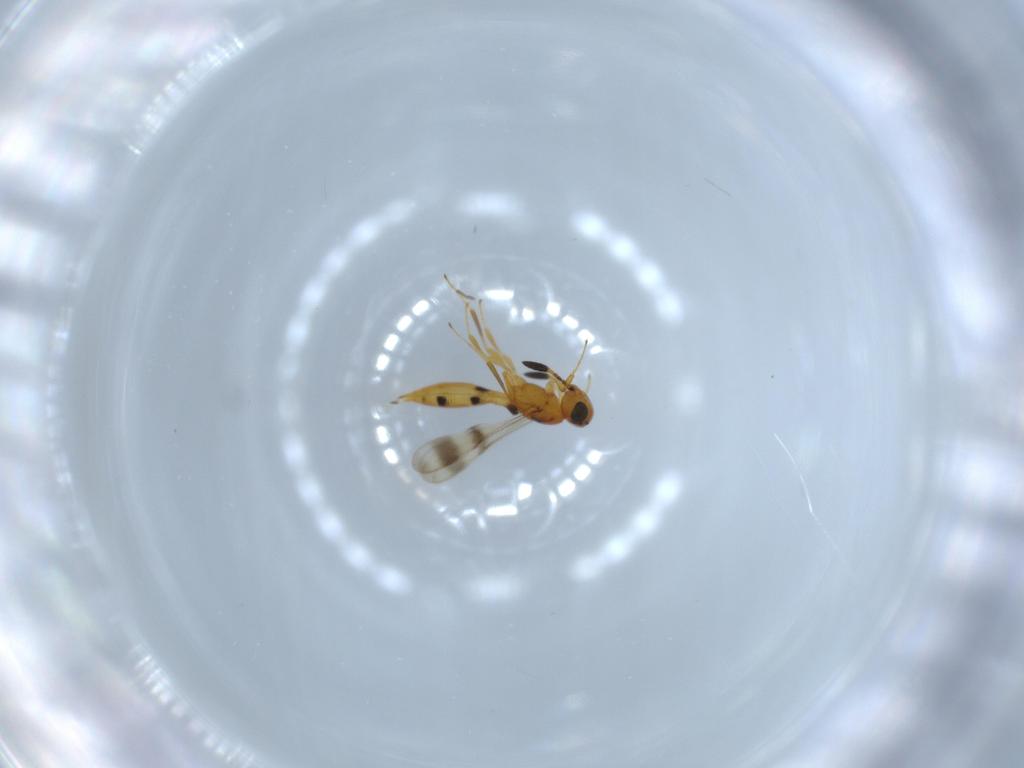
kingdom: Animalia
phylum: Arthropoda
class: Insecta
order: Hymenoptera
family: Scelionidae
